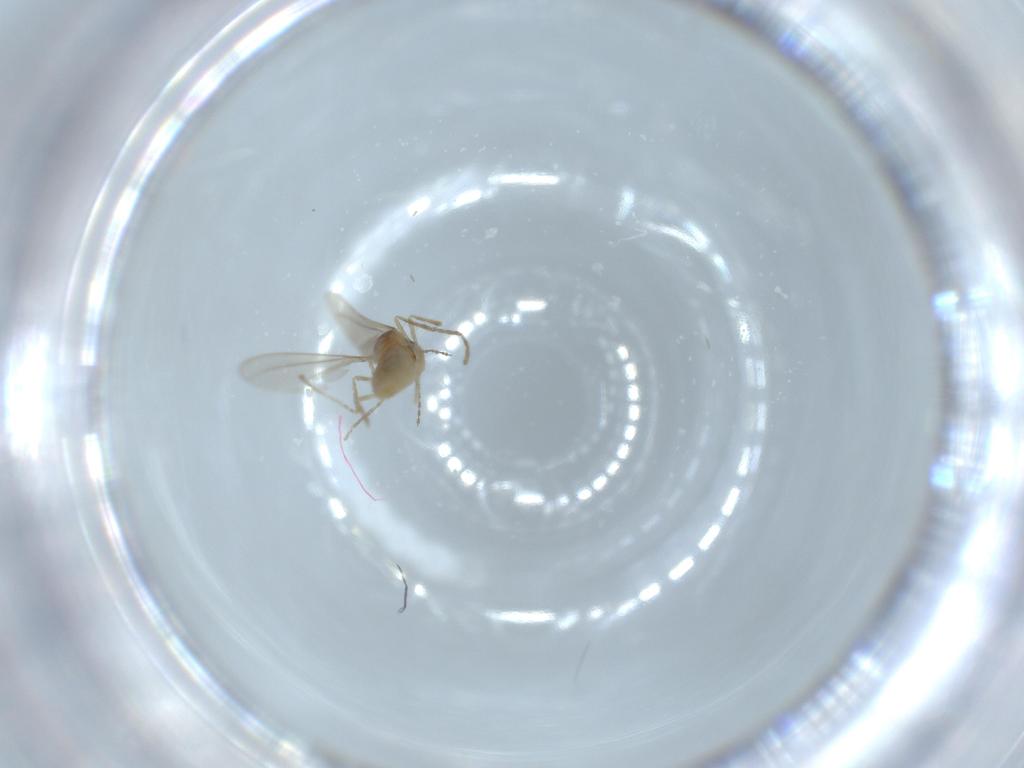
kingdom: Animalia
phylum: Arthropoda
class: Insecta
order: Diptera
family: Cecidomyiidae
